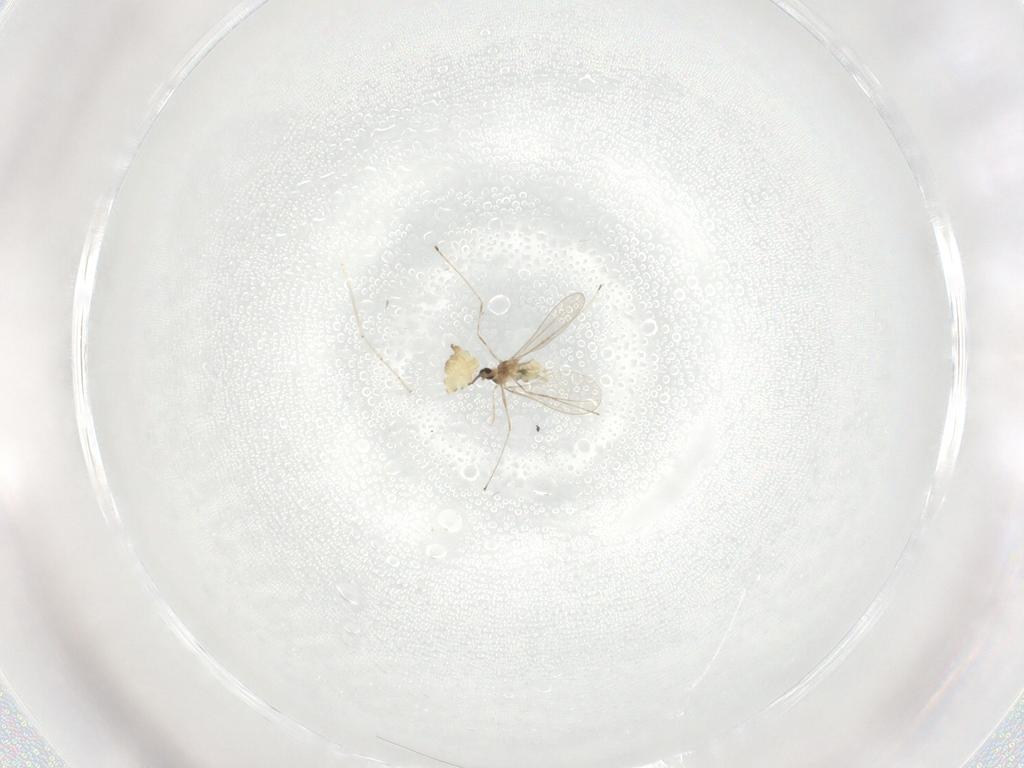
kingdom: Animalia
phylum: Arthropoda
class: Insecta
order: Diptera
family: Cecidomyiidae
